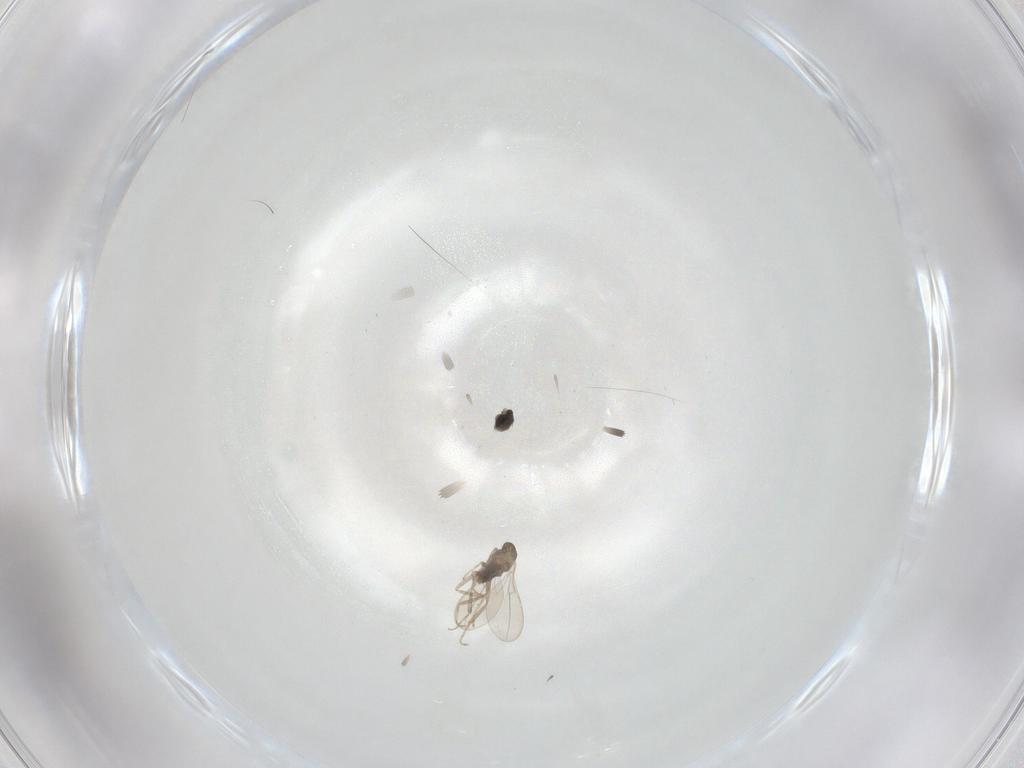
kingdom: Animalia
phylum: Arthropoda
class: Insecta
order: Diptera
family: Cecidomyiidae
